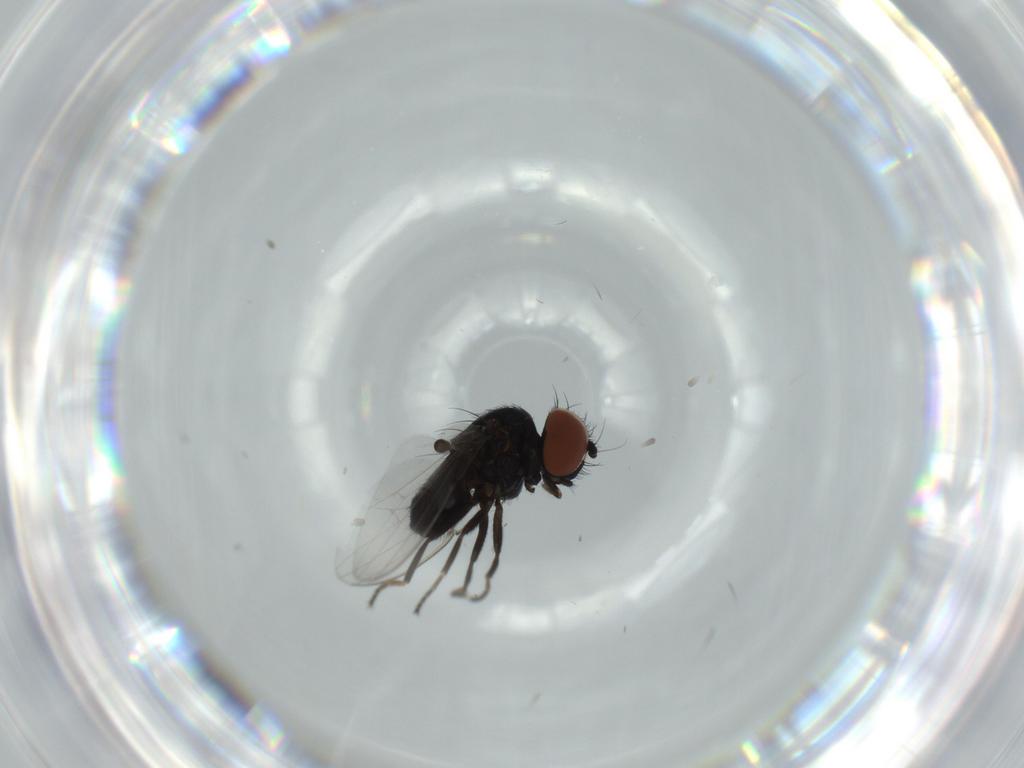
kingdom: Animalia
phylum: Arthropoda
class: Insecta
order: Diptera
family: Milichiidae
